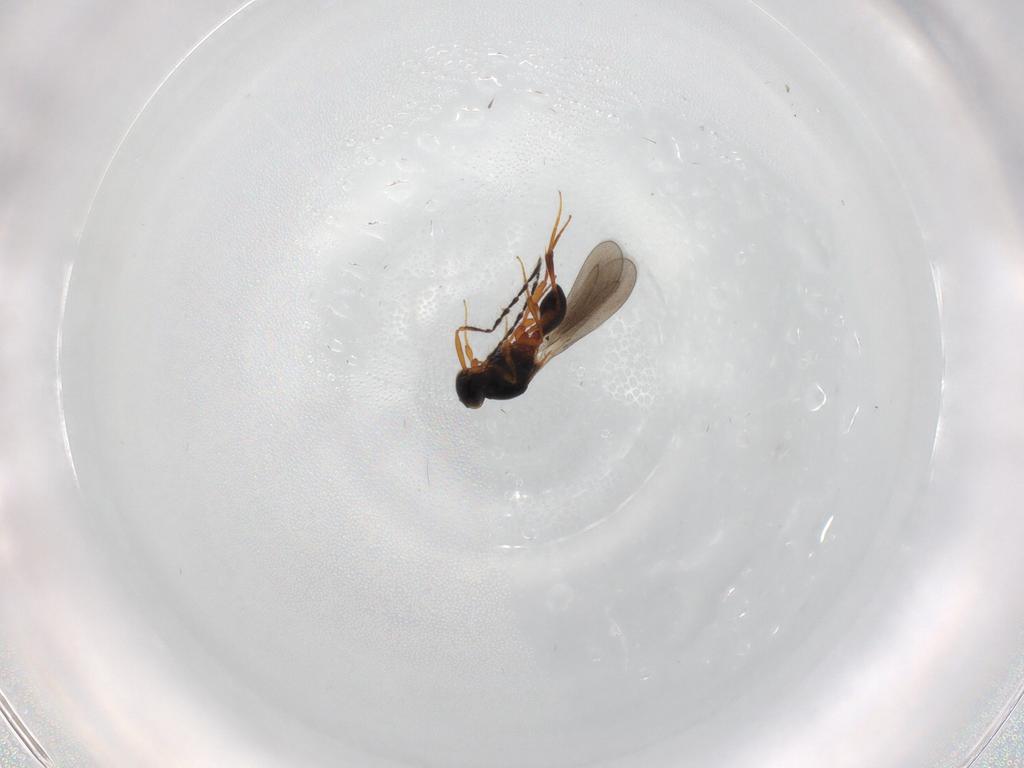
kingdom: Animalia
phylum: Arthropoda
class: Insecta
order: Hymenoptera
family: Platygastridae
